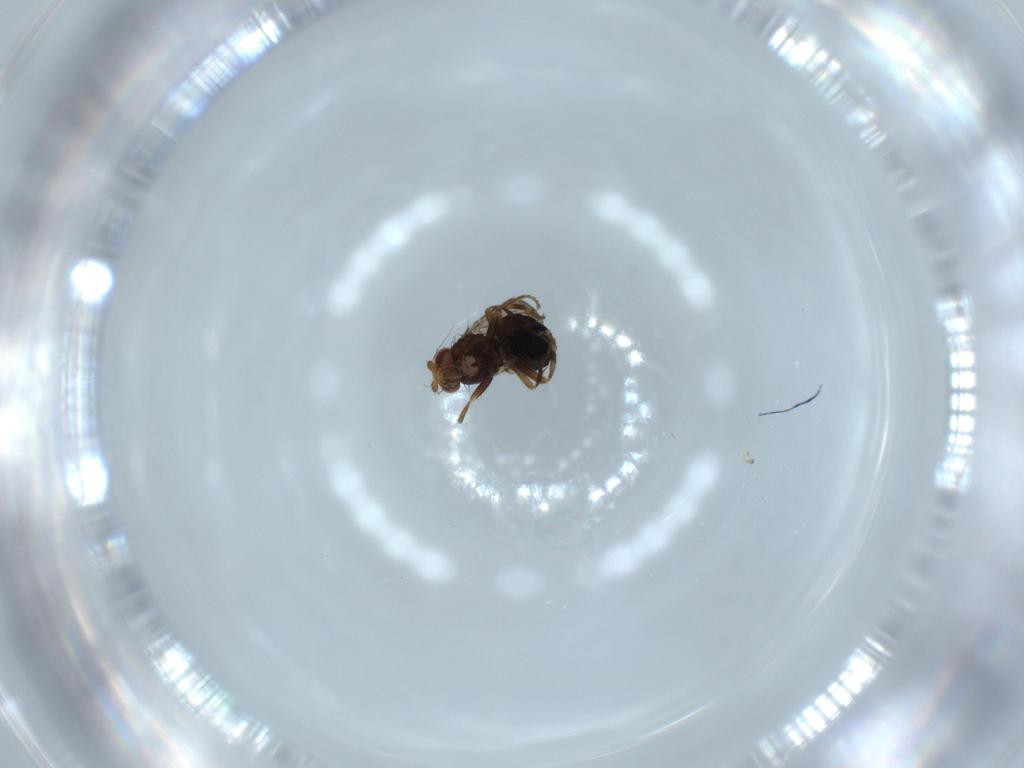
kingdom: Animalia
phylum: Arthropoda
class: Insecta
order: Diptera
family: Sphaeroceridae
